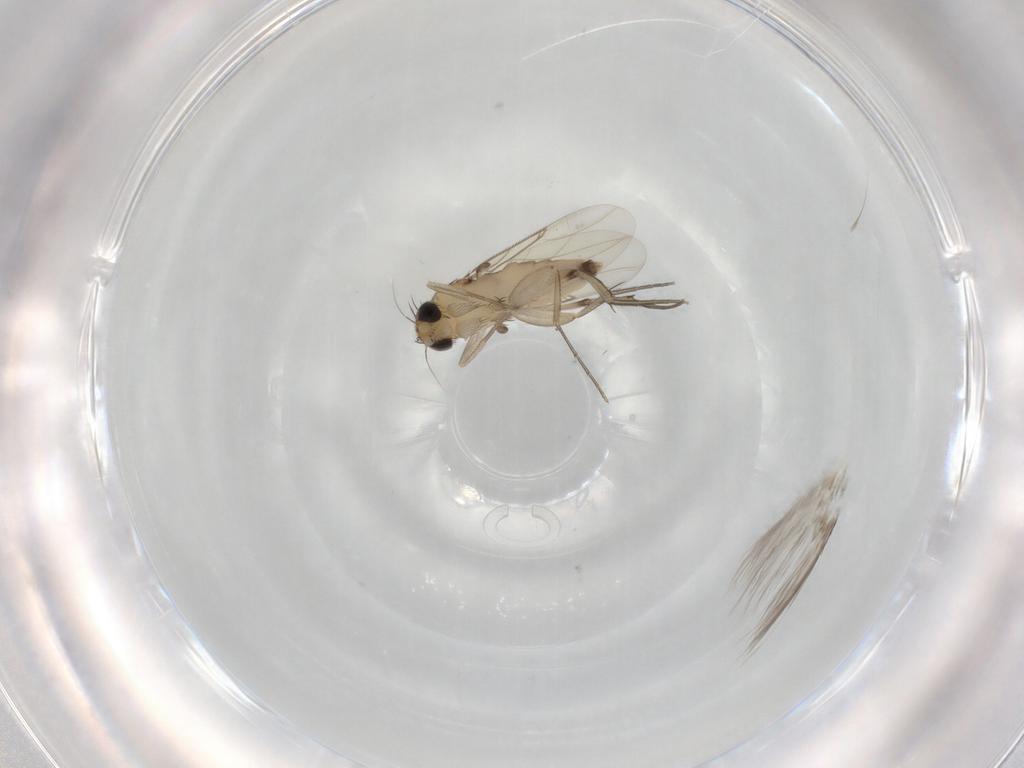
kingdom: Animalia
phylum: Arthropoda
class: Insecta
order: Diptera
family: Phoridae
